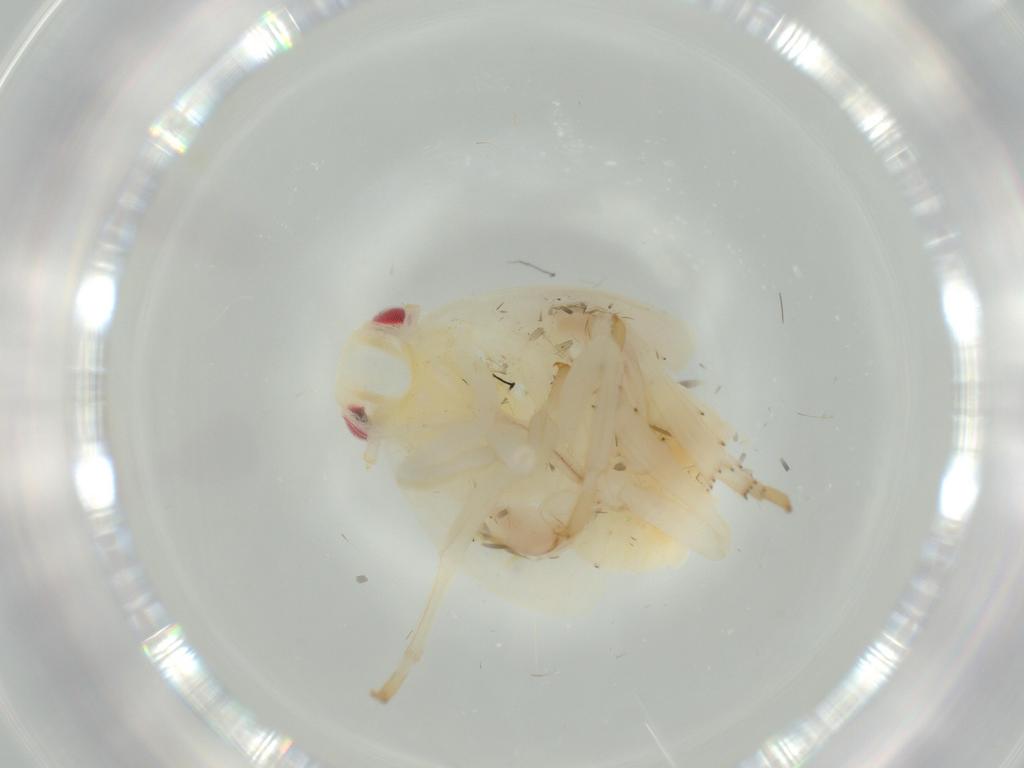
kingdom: Animalia
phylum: Arthropoda
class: Insecta
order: Hemiptera
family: Flatidae
